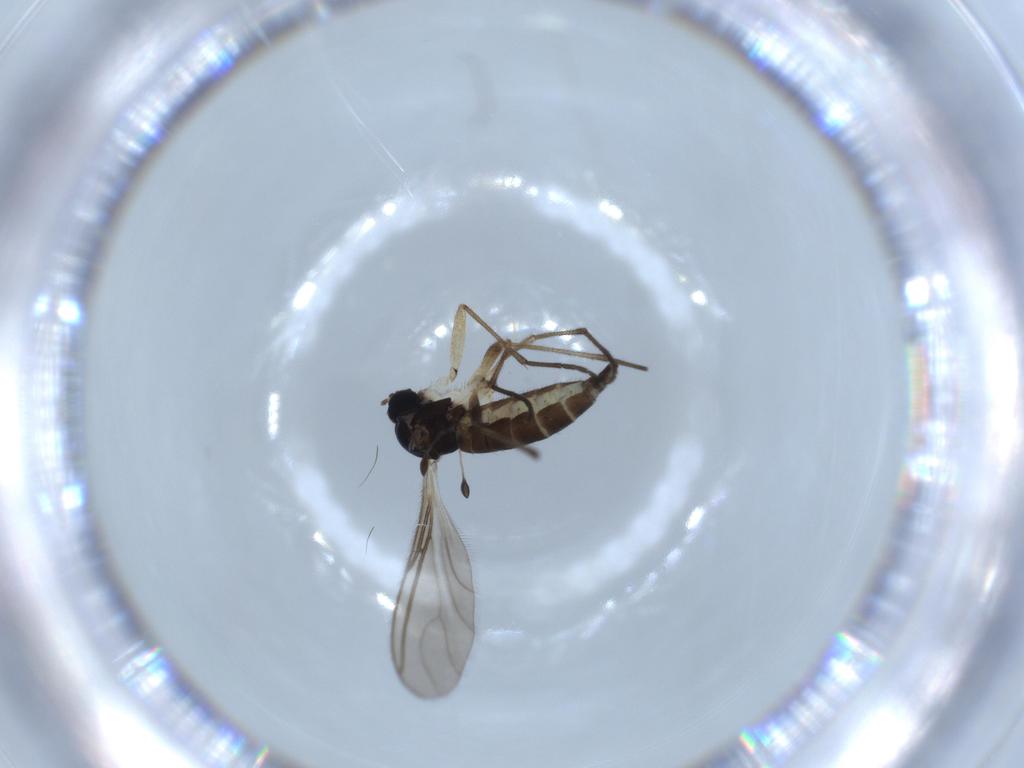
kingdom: Animalia
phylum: Arthropoda
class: Insecta
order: Diptera
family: Sciaridae
